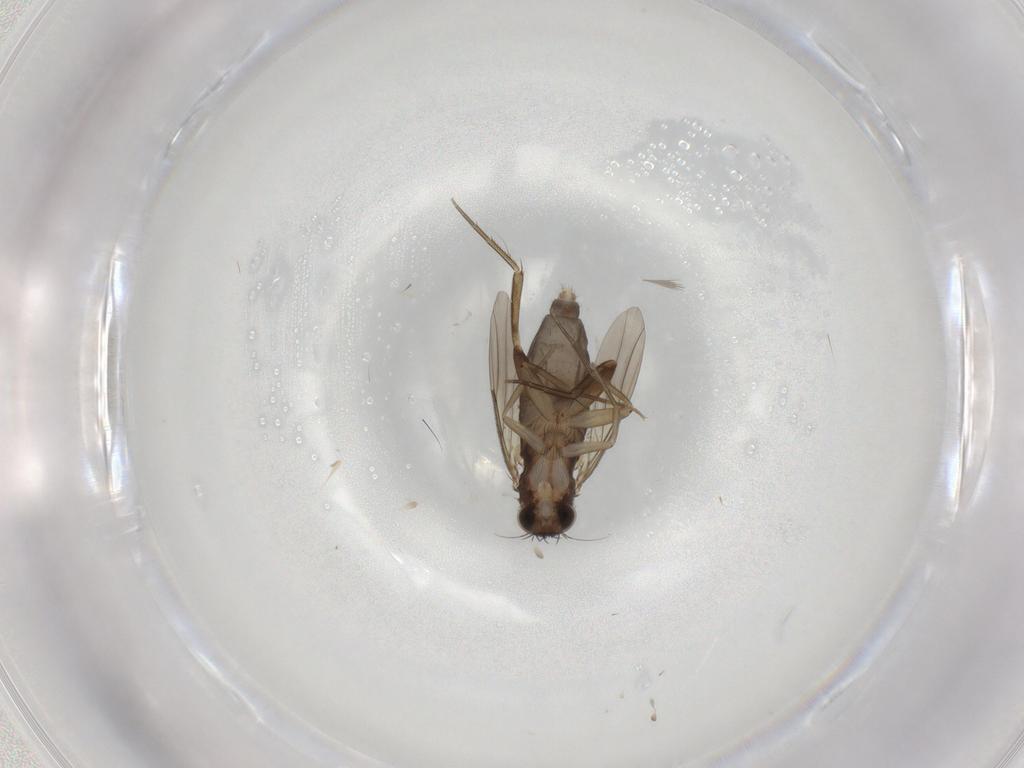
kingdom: Animalia
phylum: Arthropoda
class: Insecta
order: Diptera
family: Phoridae
